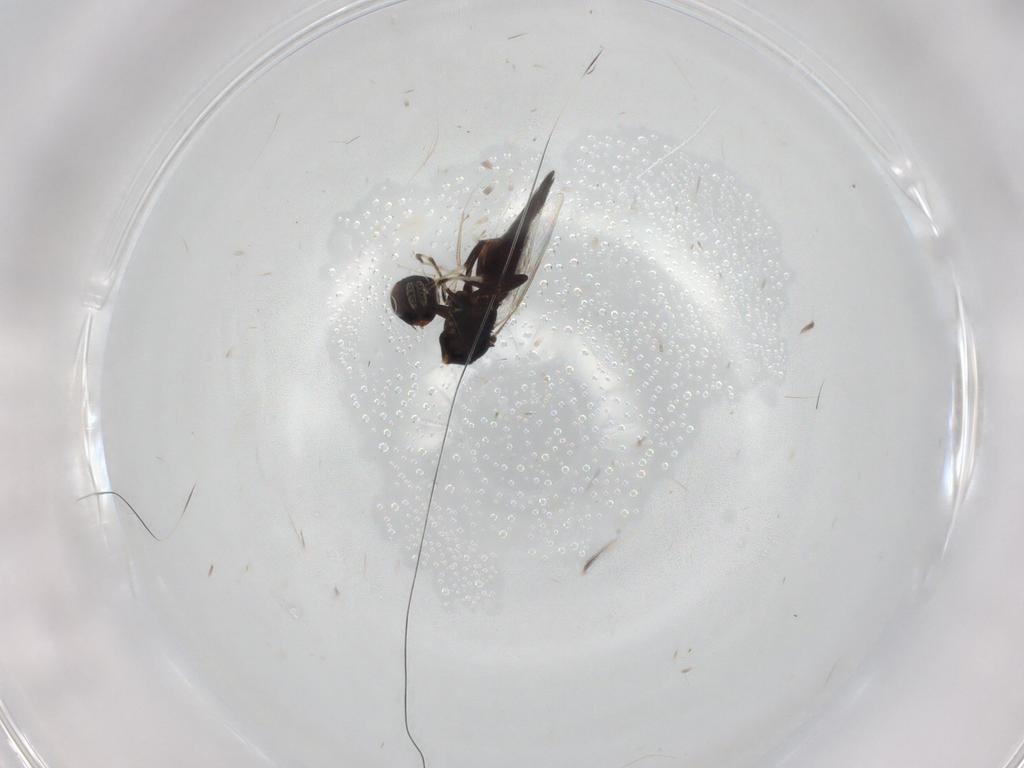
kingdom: Animalia
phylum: Arthropoda
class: Insecta
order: Hymenoptera
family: Eulophidae
